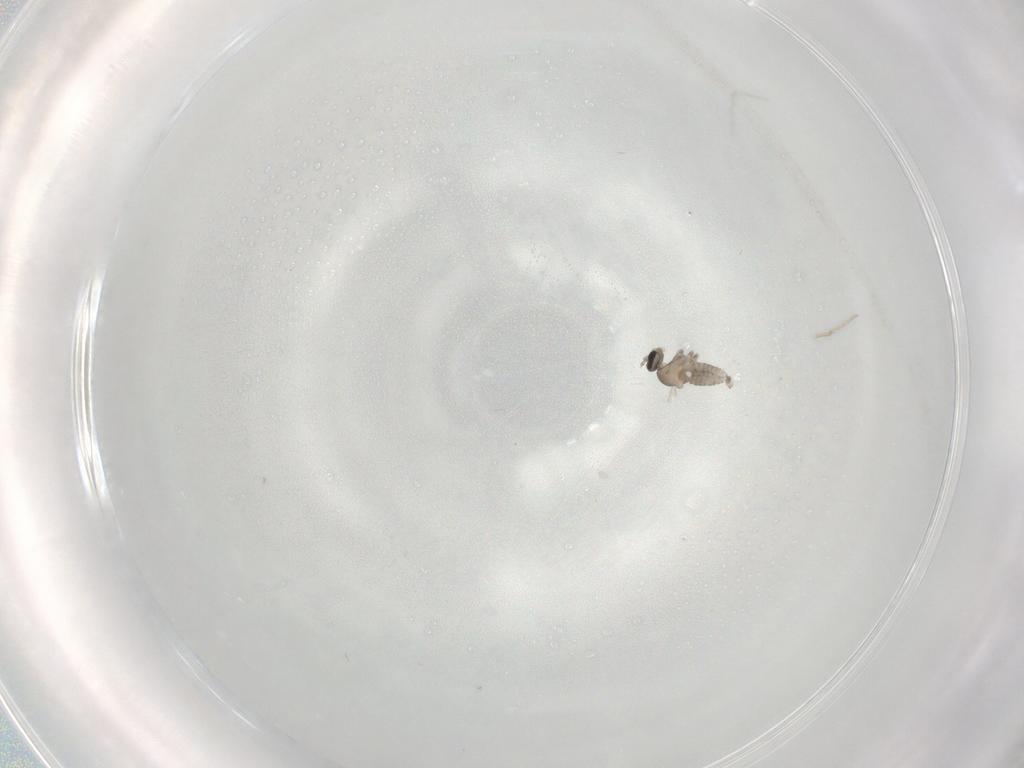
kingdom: Animalia
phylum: Arthropoda
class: Insecta
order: Diptera
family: Cecidomyiidae
